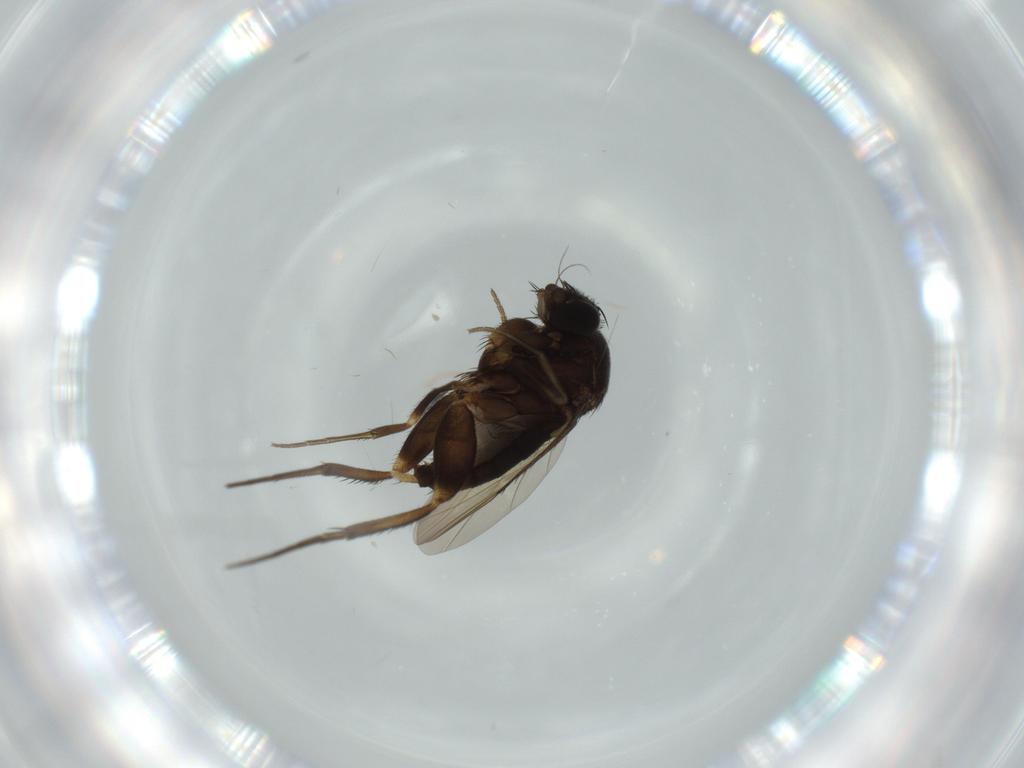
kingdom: Animalia
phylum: Arthropoda
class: Insecta
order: Diptera
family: Phoridae
